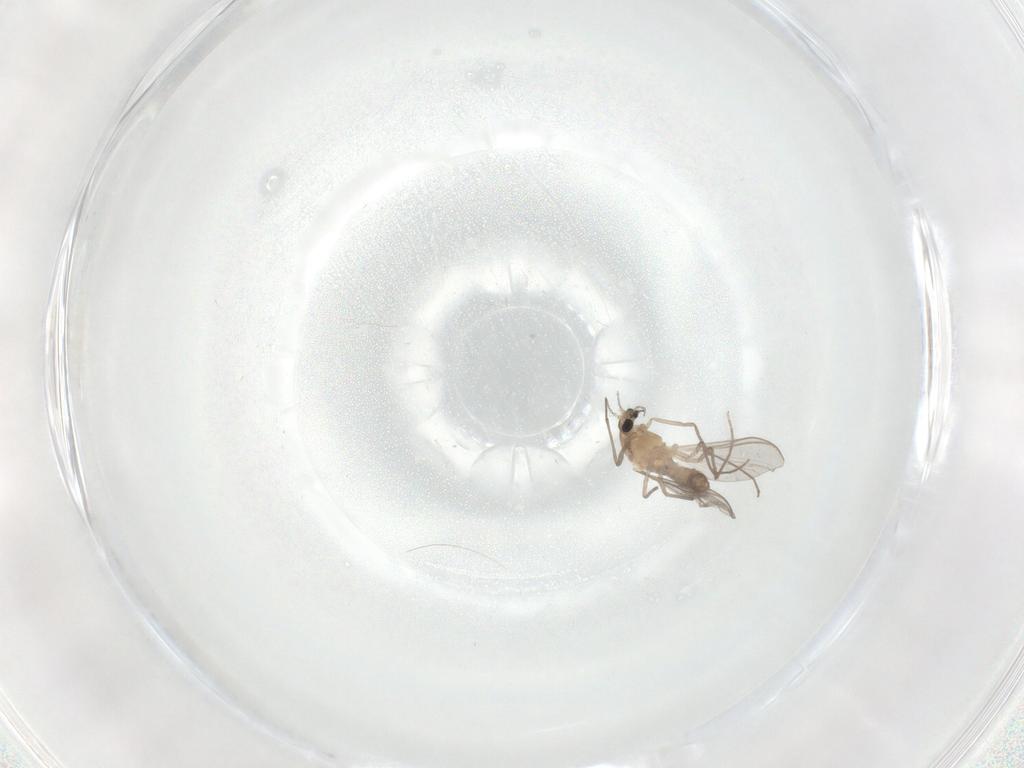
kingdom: Animalia
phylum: Arthropoda
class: Insecta
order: Diptera
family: Chironomidae
